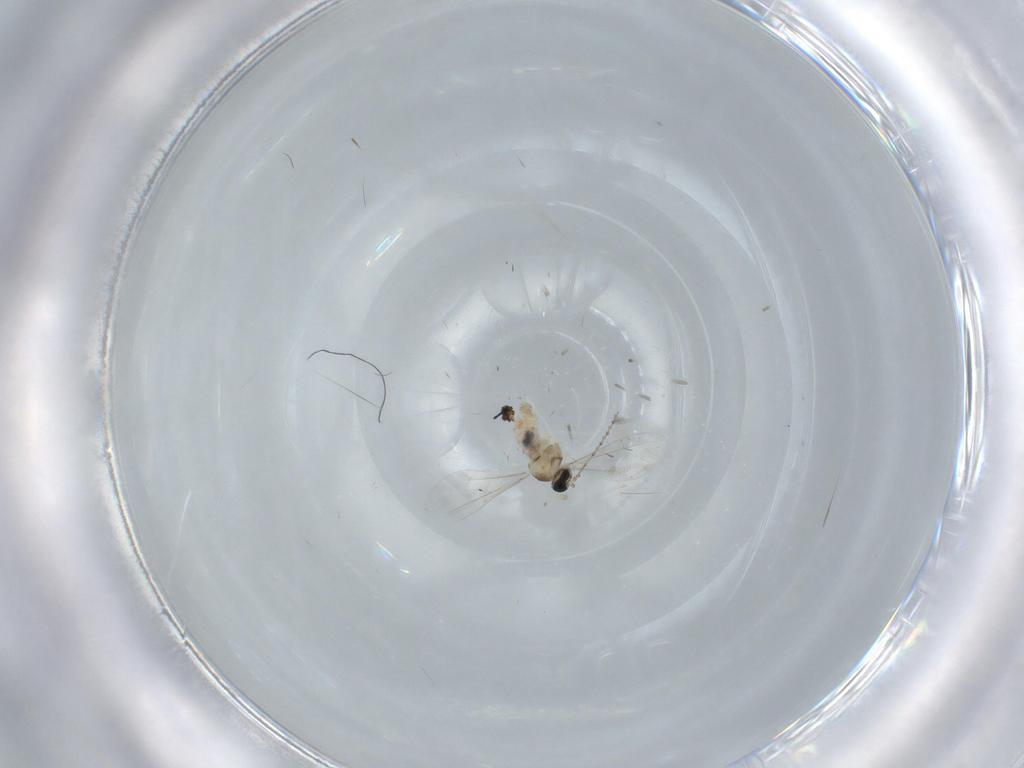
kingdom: Animalia
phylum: Arthropoda
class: Insecta
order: Diptera
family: Cecidomyiidae
